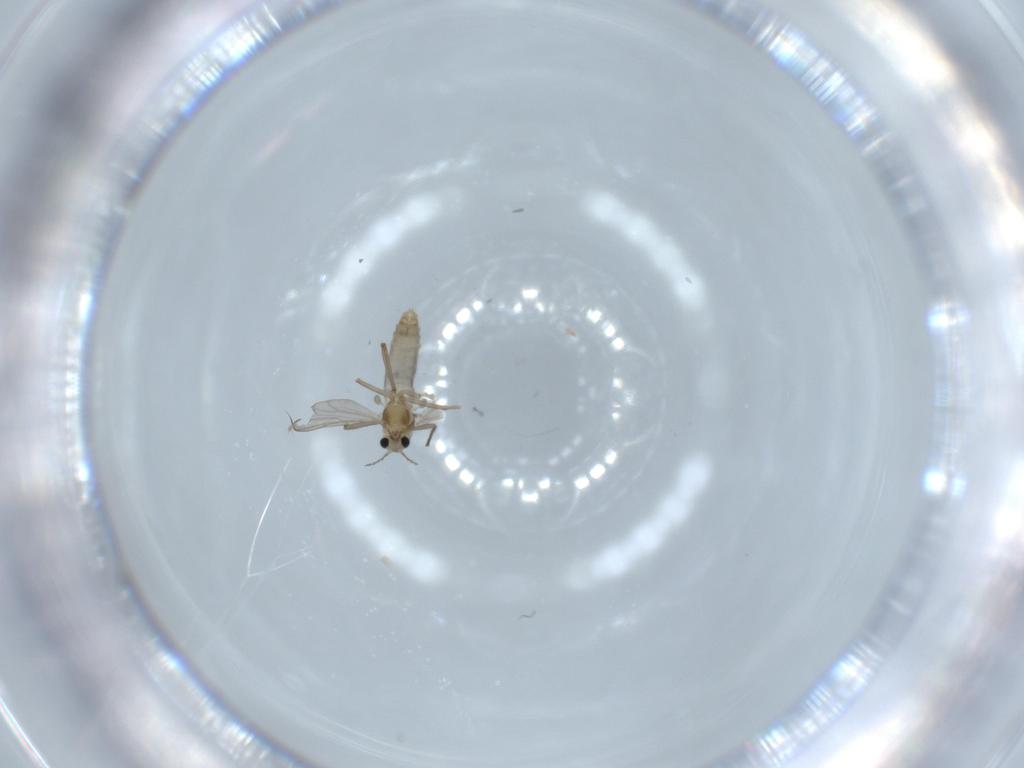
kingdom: Animalia
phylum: Arthropoda
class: Insecta
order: Diptera
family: Chironomidae
